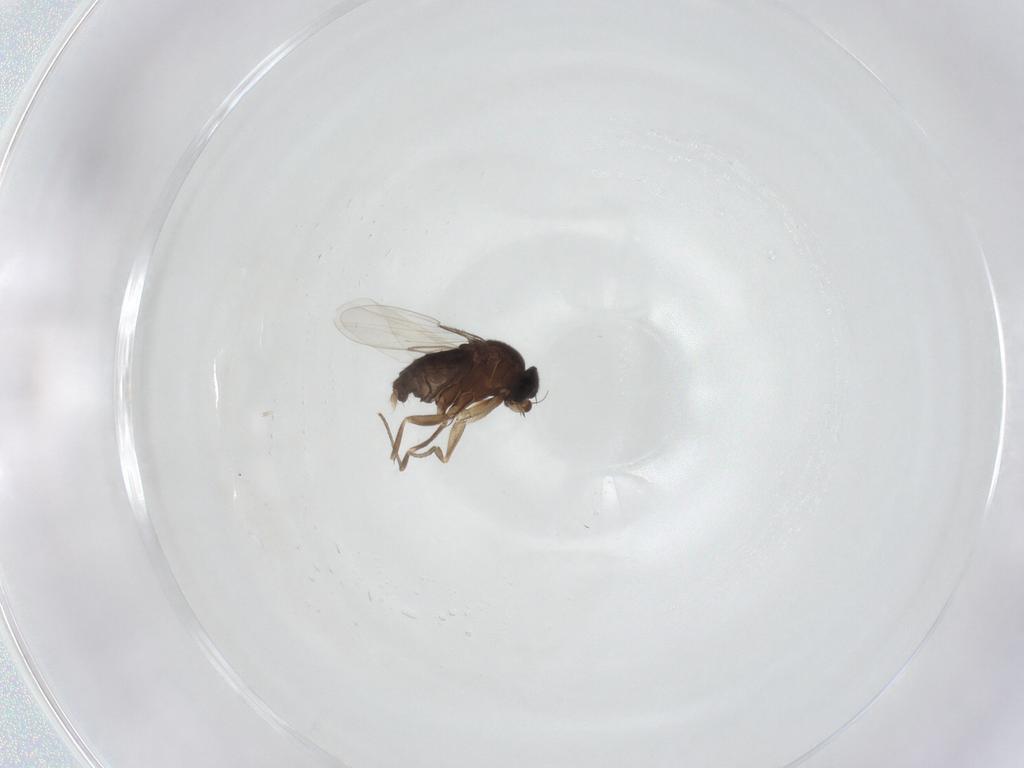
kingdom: Animalia
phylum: Arthropoda
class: Insecta
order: Diptera
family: Phoridae
